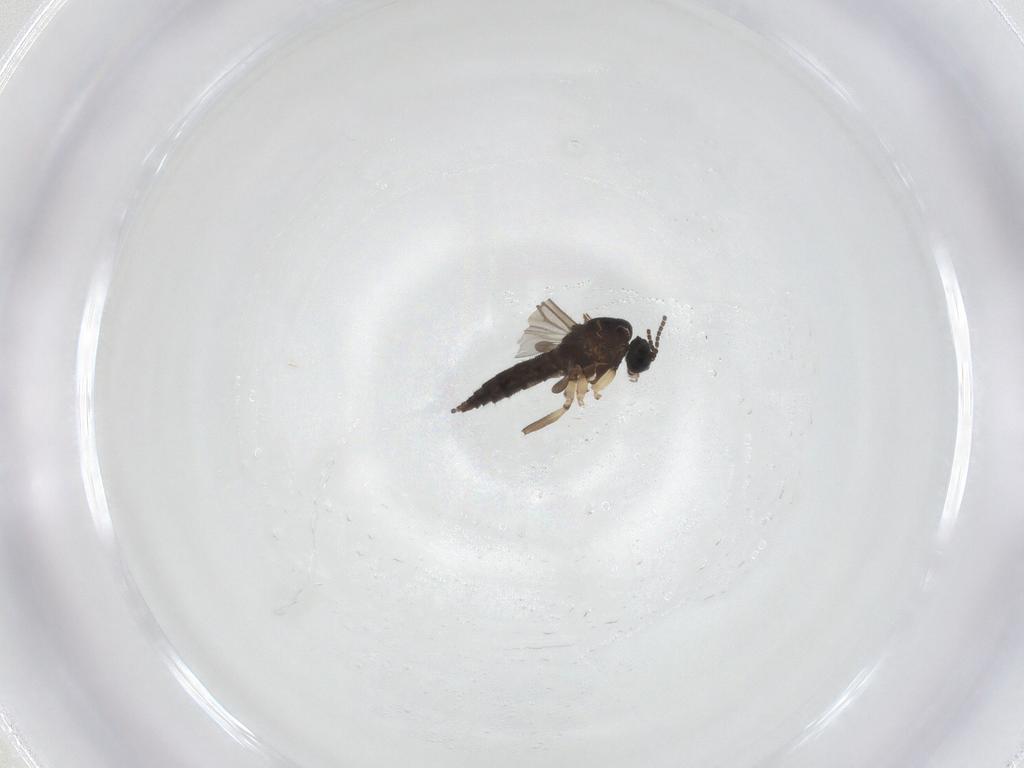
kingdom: Animalia
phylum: Arthropoda
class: Insecta
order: Diptera
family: Sciaridae
